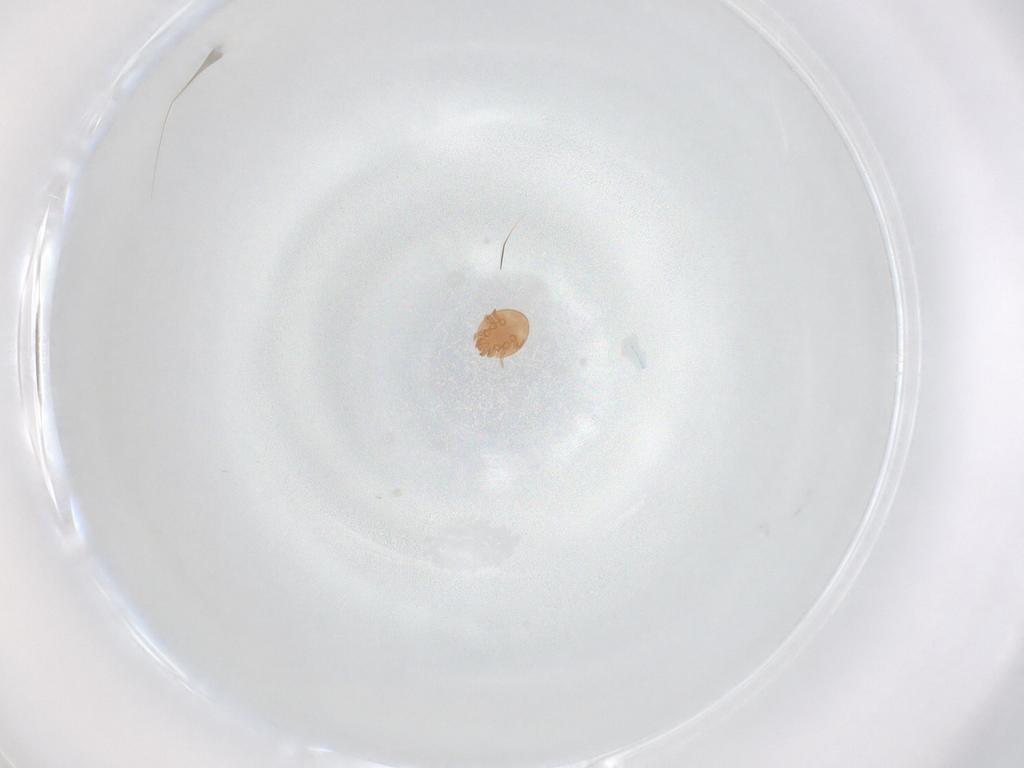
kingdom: Animalia
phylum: Arthropoda
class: Arachnida
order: Mesostigmata
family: Trematuridae
